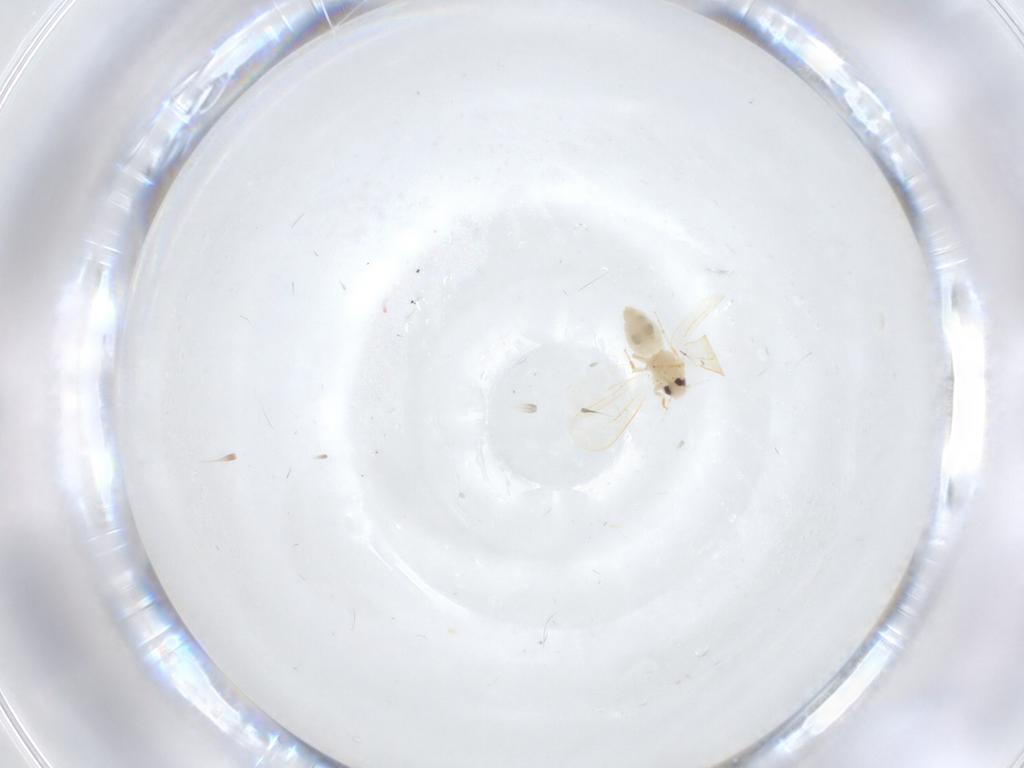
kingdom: Animalia
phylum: Arthropoda
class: Insecta
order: Hemiptera
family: Aleyrodidae
